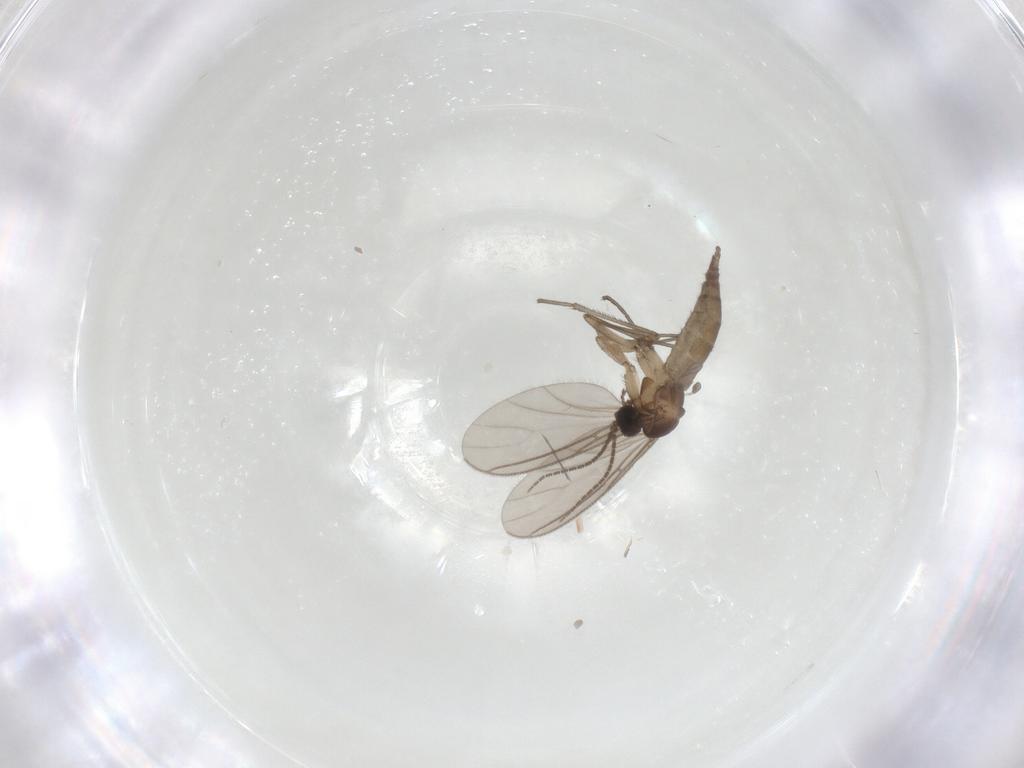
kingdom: Animalia
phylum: Arthropoda
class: Insecta
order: Diptera
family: Sciaridae
